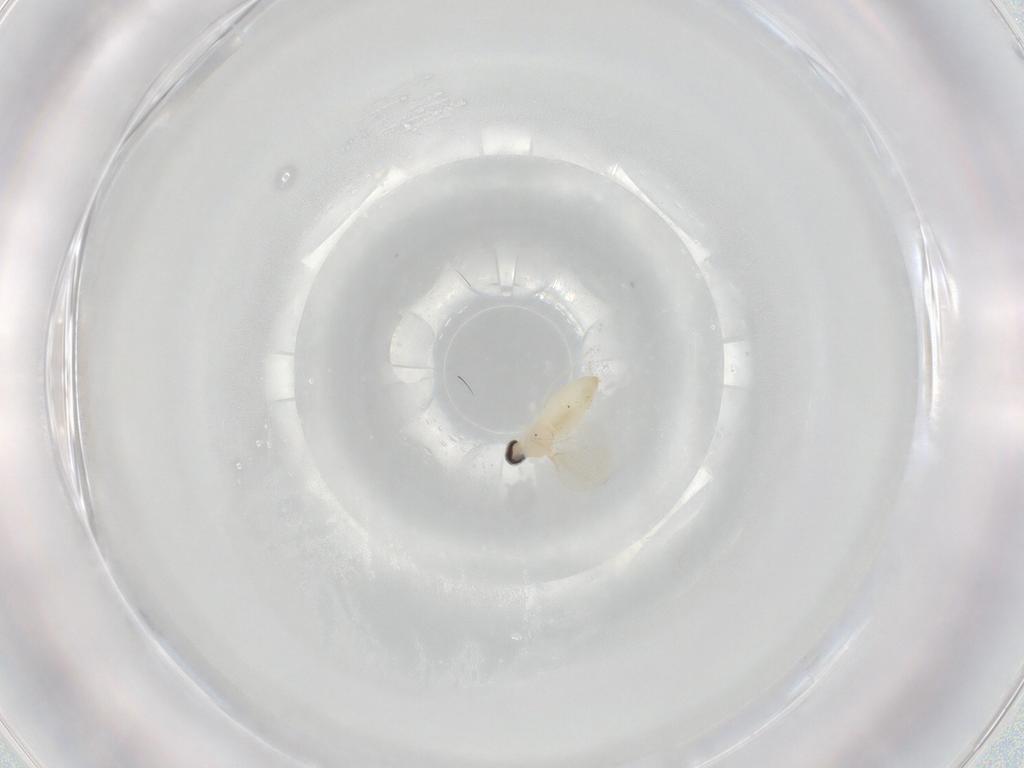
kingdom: Animalia
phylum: Arthropoda
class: Insecta
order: Diptera
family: Cecidomyiidae
